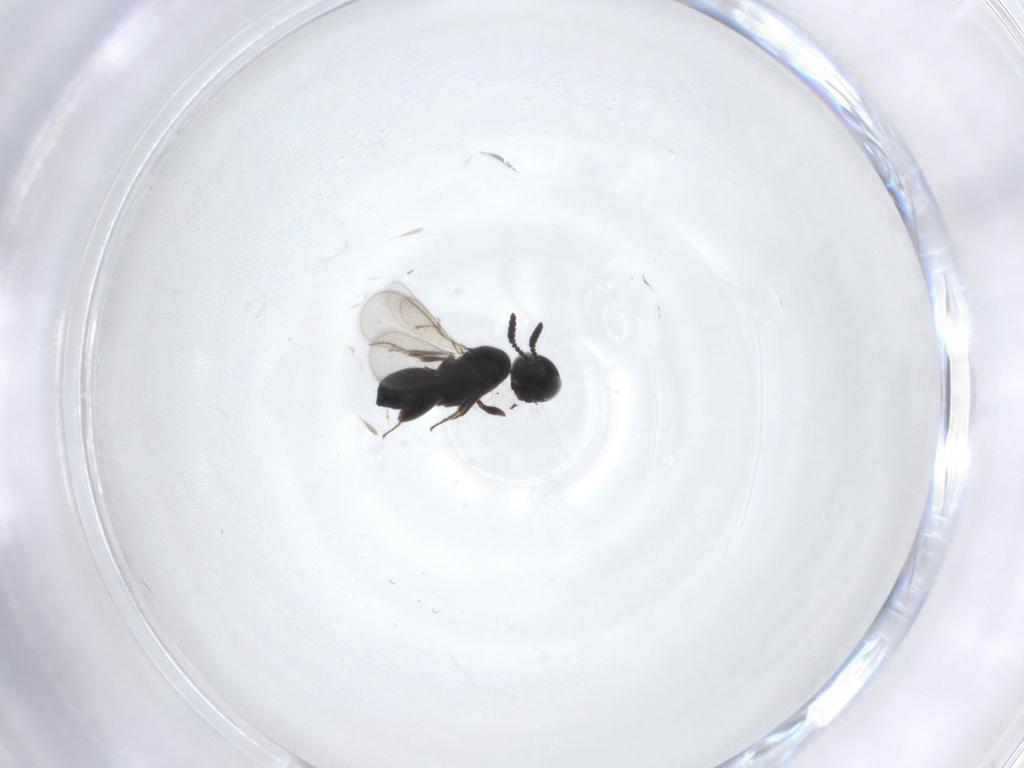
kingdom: Animalia
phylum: Arthropoda
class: Insecta
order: Hymenoptera
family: Scelionidae
